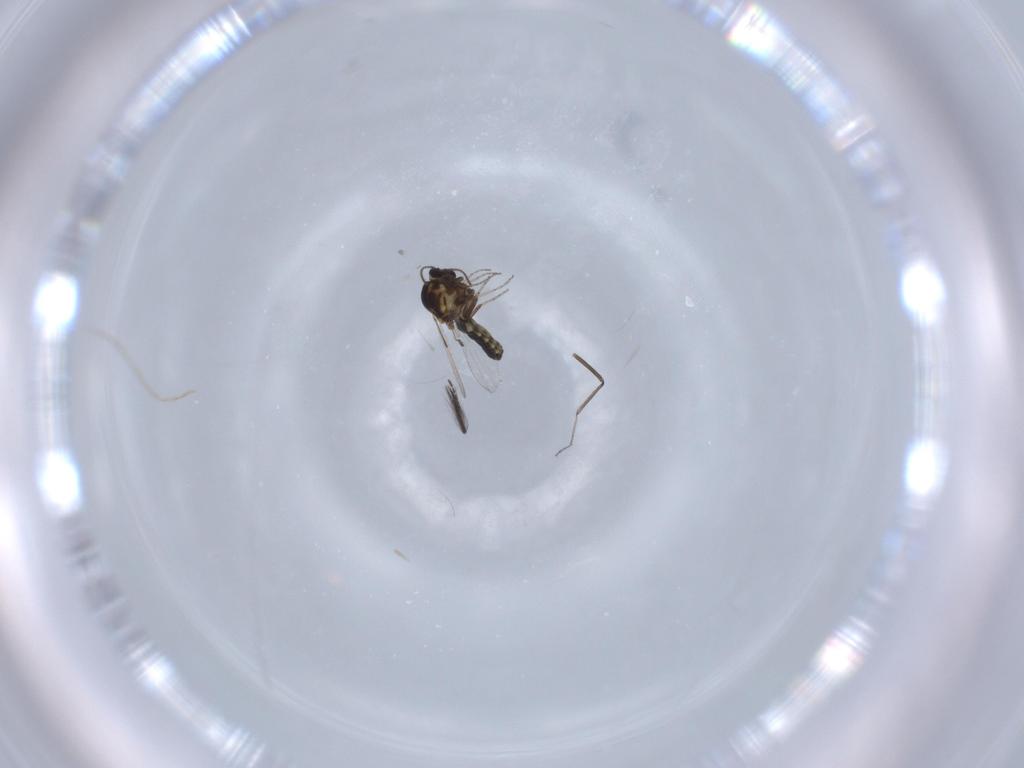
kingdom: Animalia
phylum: Arthropoda
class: Insecta
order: Diptera
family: Ceratopogonidae
